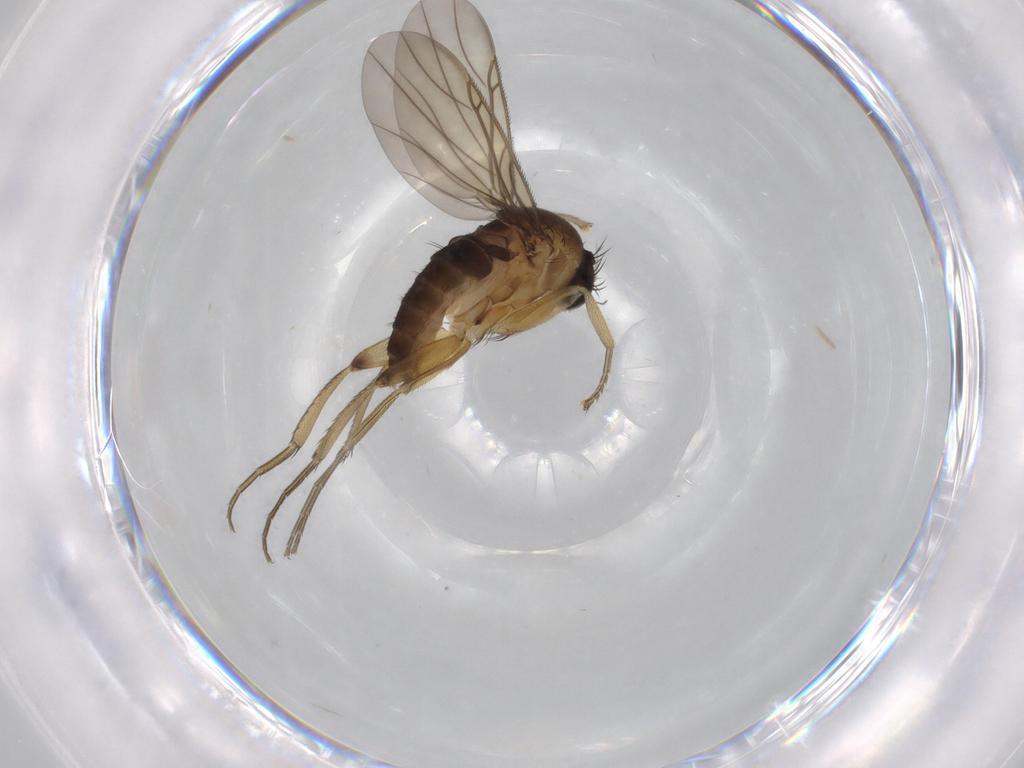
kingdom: Animalia
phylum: Arthropoda
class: Insecta
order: Diptera
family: Phoridae
